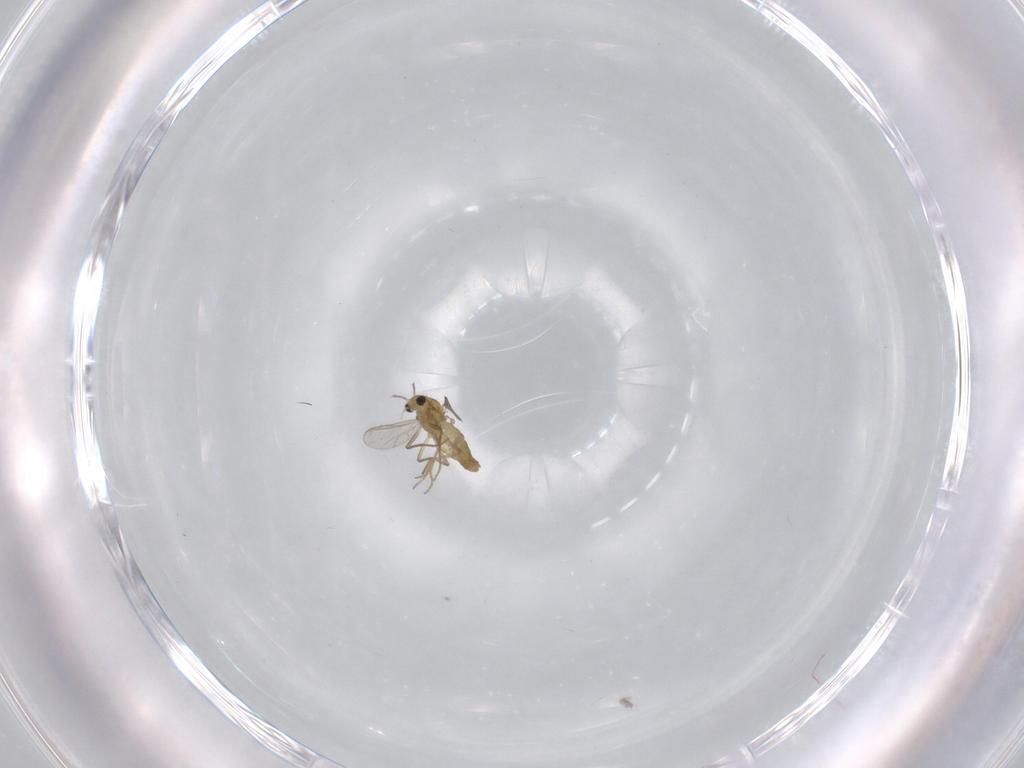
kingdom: Animalia
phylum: Arthropoda
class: Insecta
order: Diptera
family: Chironomidae
